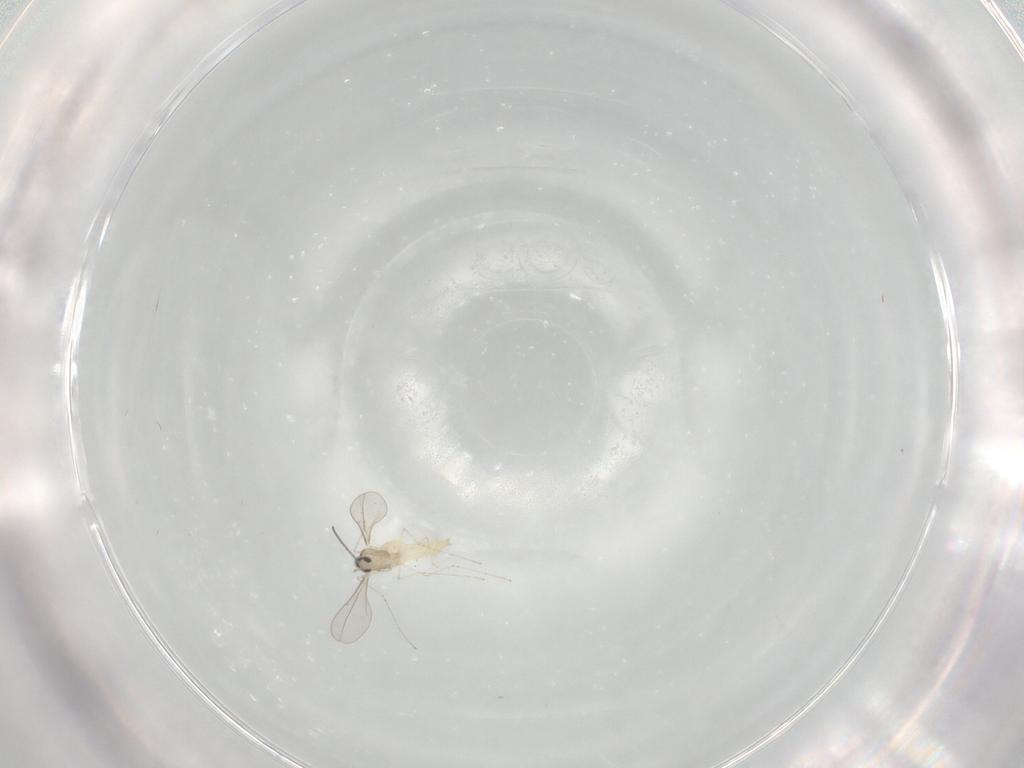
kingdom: Animalia
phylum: Arthropoda
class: Insecta
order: Diptera
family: Cecidomyiidae
